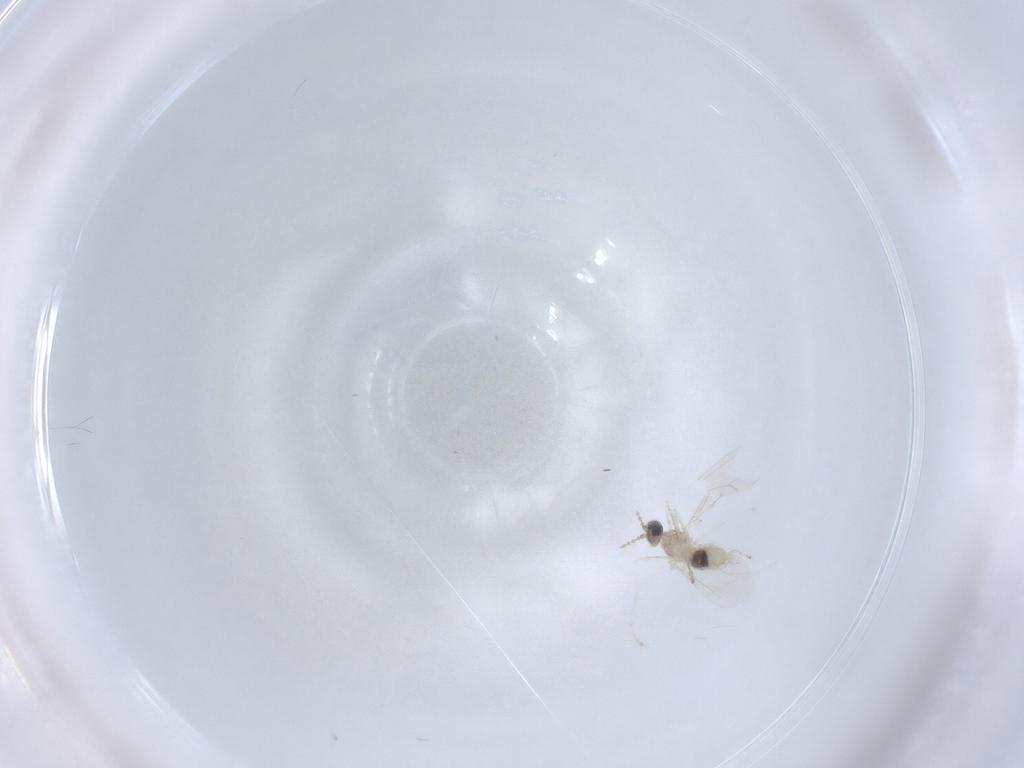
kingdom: Animalia
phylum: Arthropoda
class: Insecta
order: Diptera
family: Cecidomyiidae
